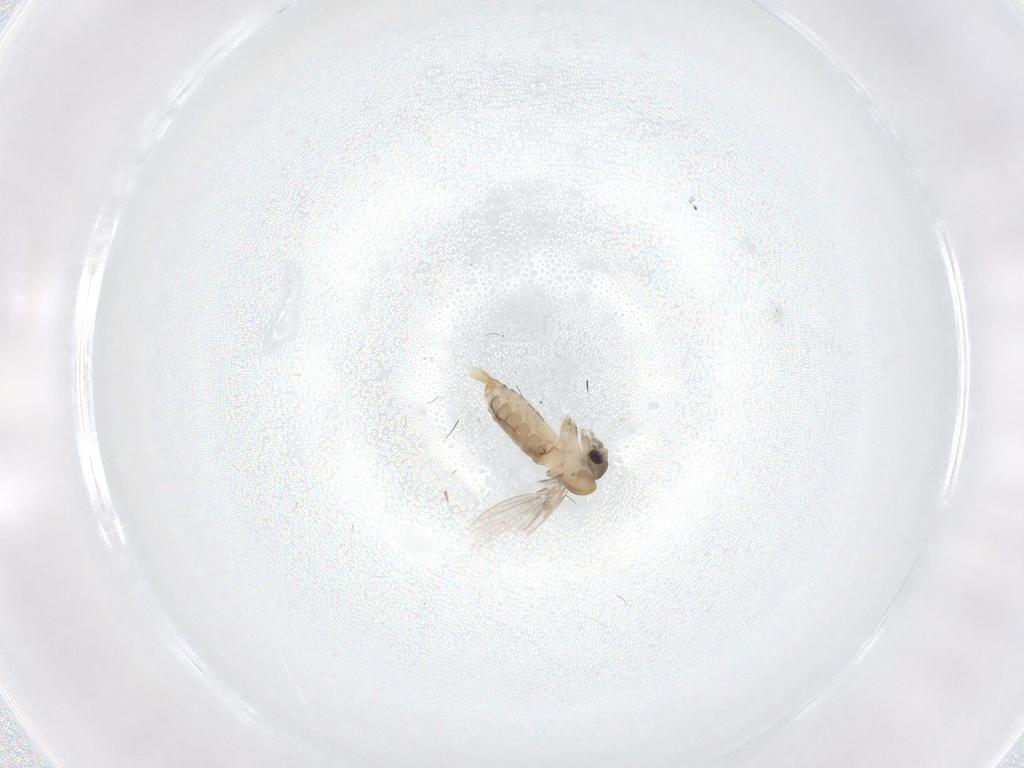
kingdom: Animalia
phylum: Arthropoda
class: Insecta
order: Diptera
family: Psychodidae
